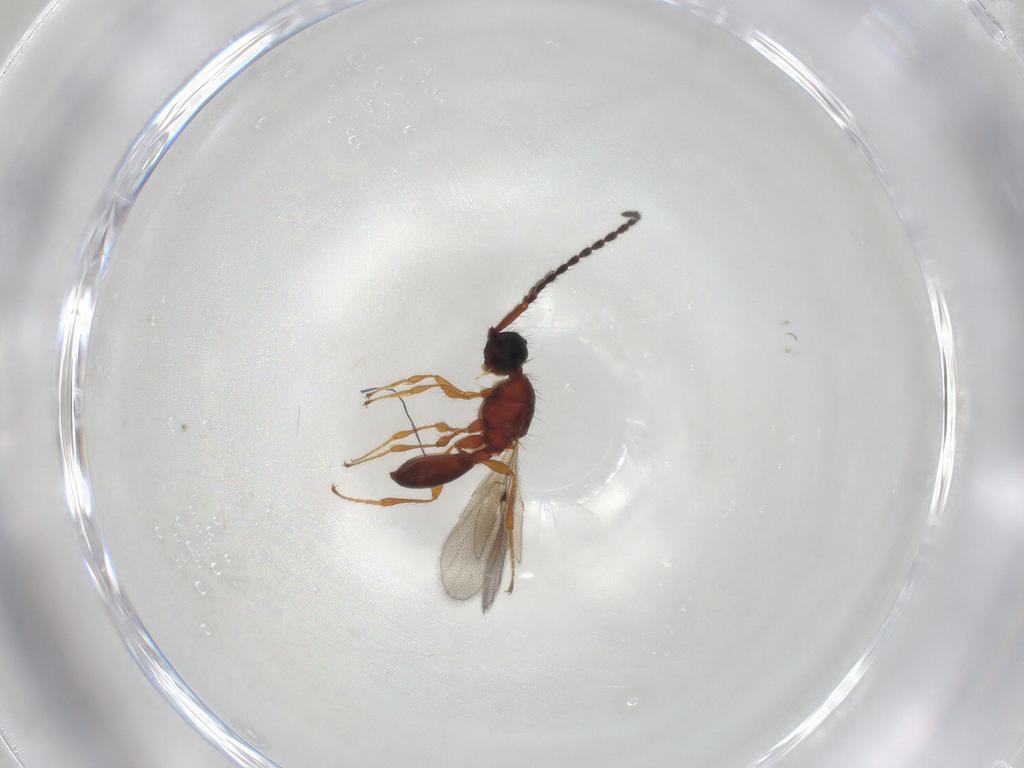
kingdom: Animalia
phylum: Arthropoda
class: Insecta
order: Hymenoptera
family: Diapriidae
